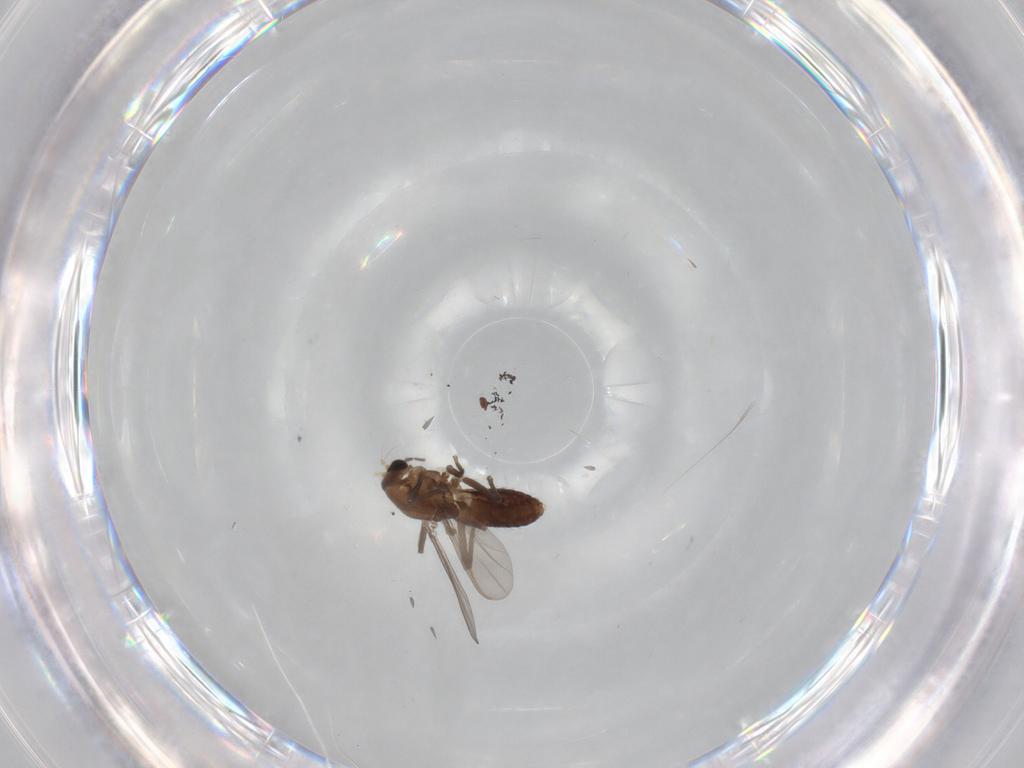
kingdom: Animalia
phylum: Arthropoda
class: Insecta
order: Diptera
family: Chironomidae
